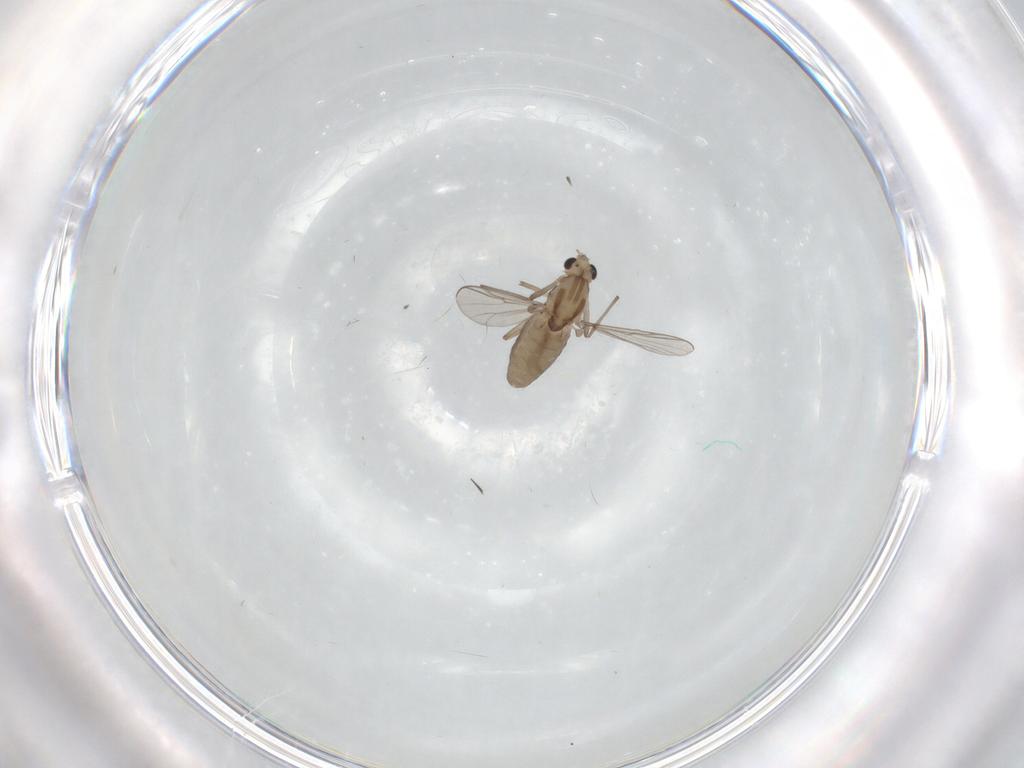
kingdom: Animalia
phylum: Arthropoda
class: Insecta
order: Diptera
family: Chironomidae
